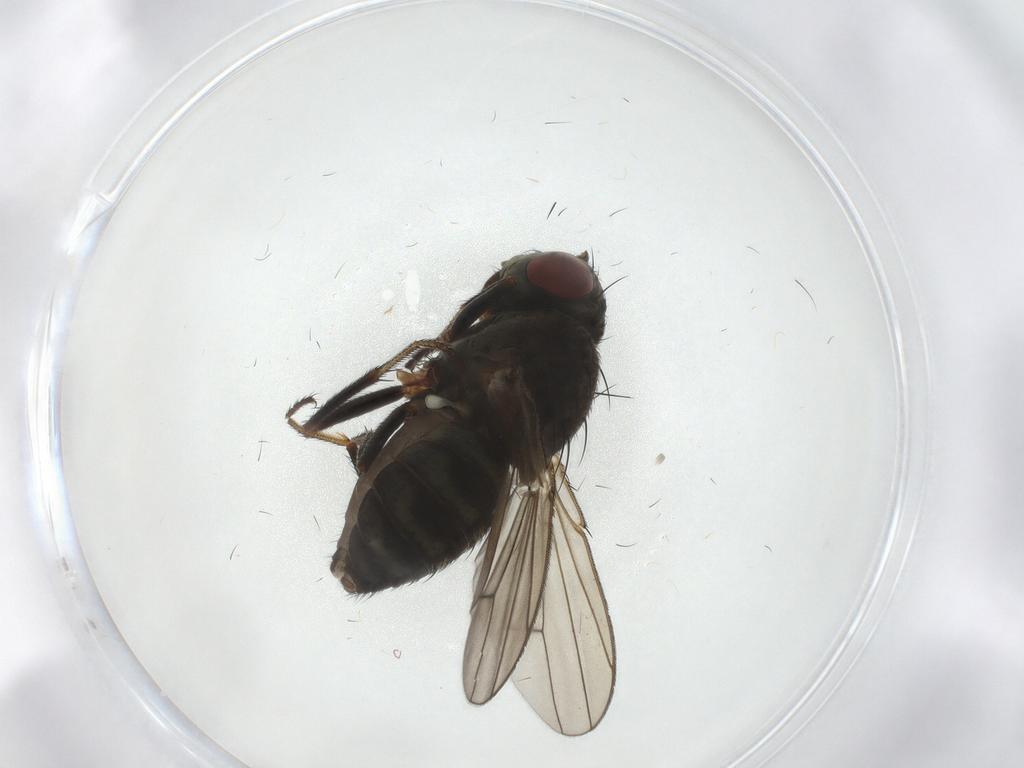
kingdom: Animalia
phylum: Arthropoda
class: Insecta
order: Diptera
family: Ephydridae
